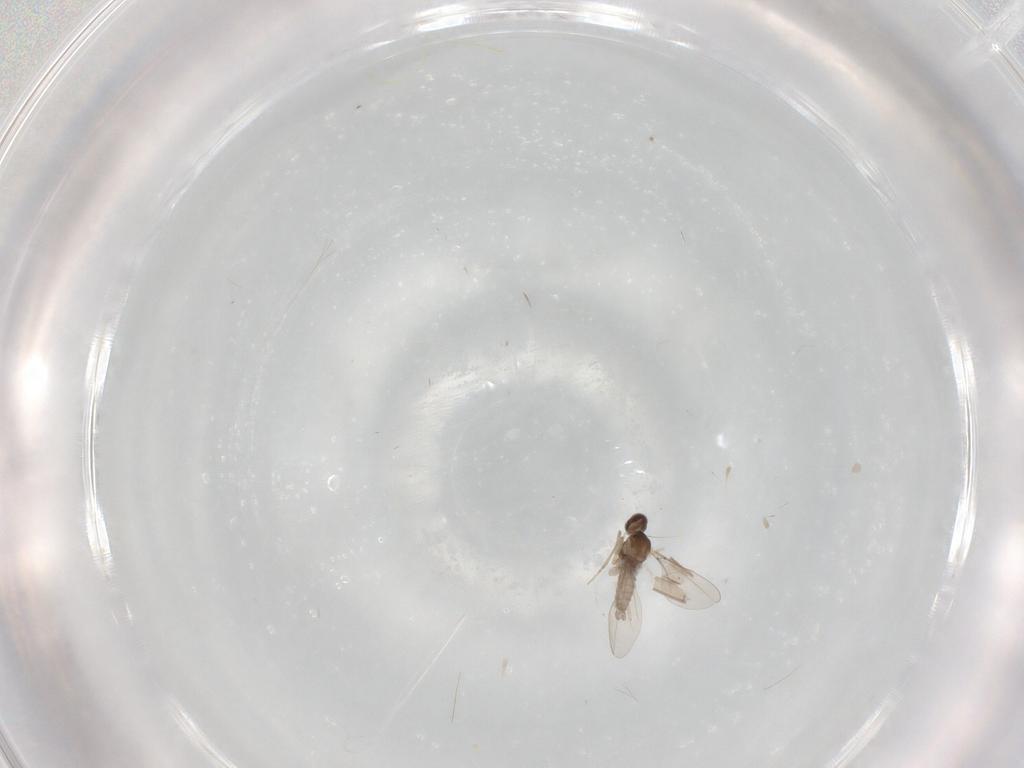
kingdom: Animalia
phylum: Arthropoda
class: Insecta
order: Diptera
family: Cecidomyiidae
